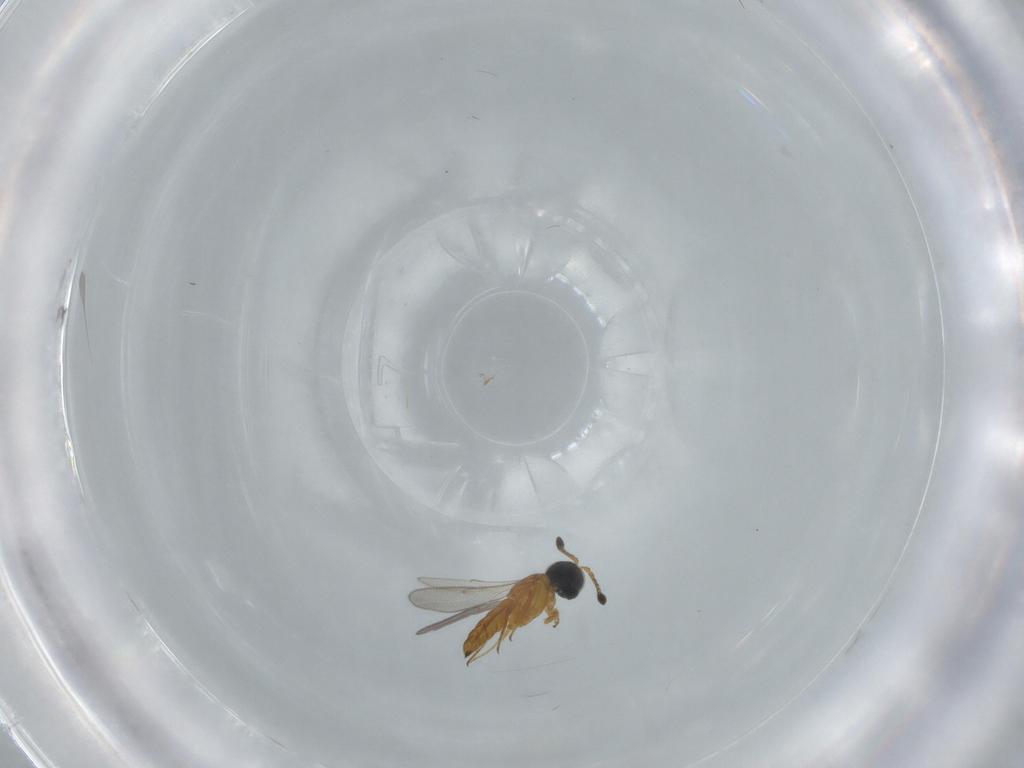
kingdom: Animalia
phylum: Arthropoda
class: Insecta
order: Hymenoptera
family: Scelionidae
